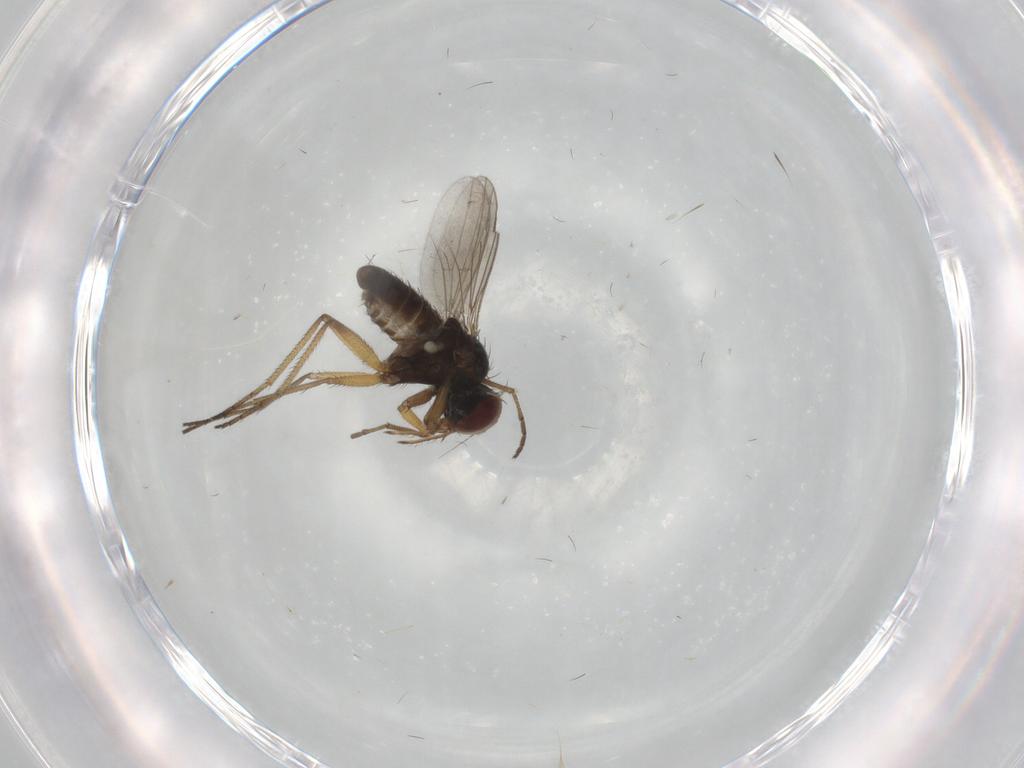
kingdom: Animalia
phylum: Arthropoda
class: Insecta
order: Diptera
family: Dolichopodidae
